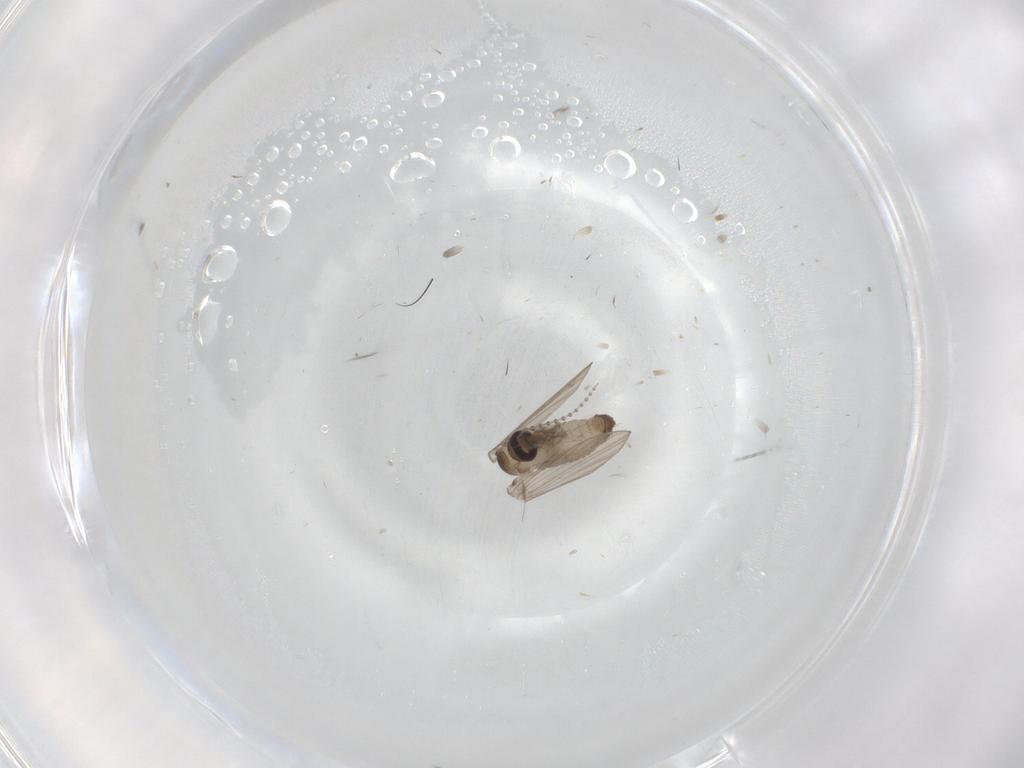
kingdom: Animalia
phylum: Arthropoda
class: Insecta
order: Diptera
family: Psychodidae
